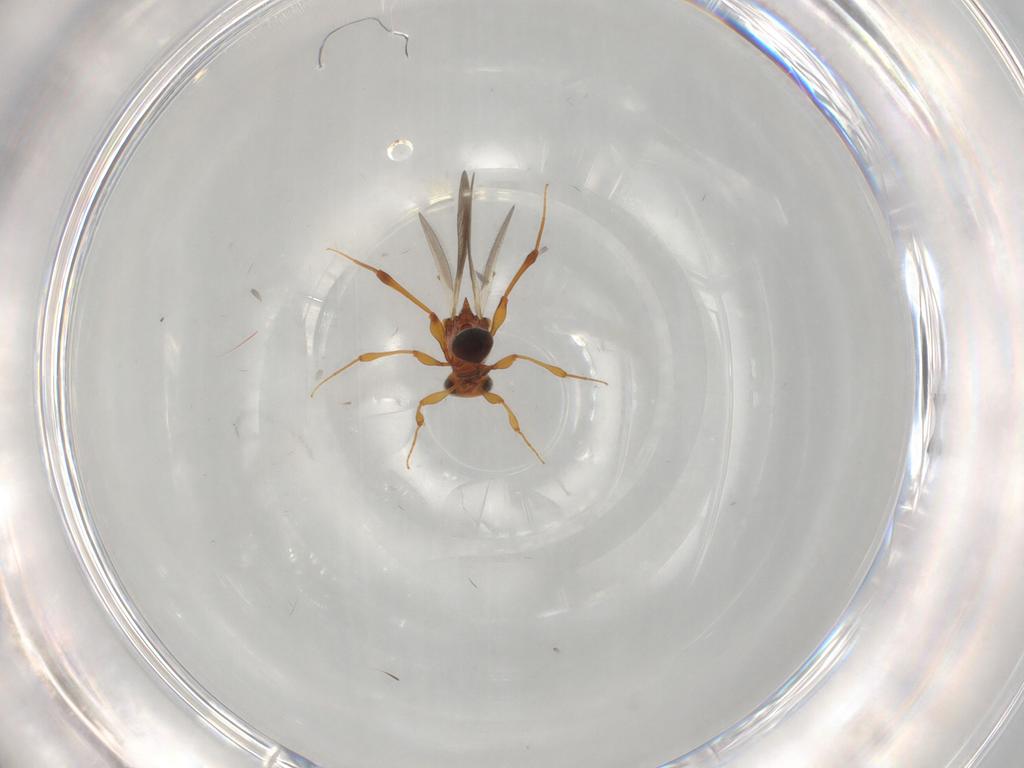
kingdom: Animalia
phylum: Arthropoda
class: Insecta
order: Hymenoptera
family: Platygastridae
